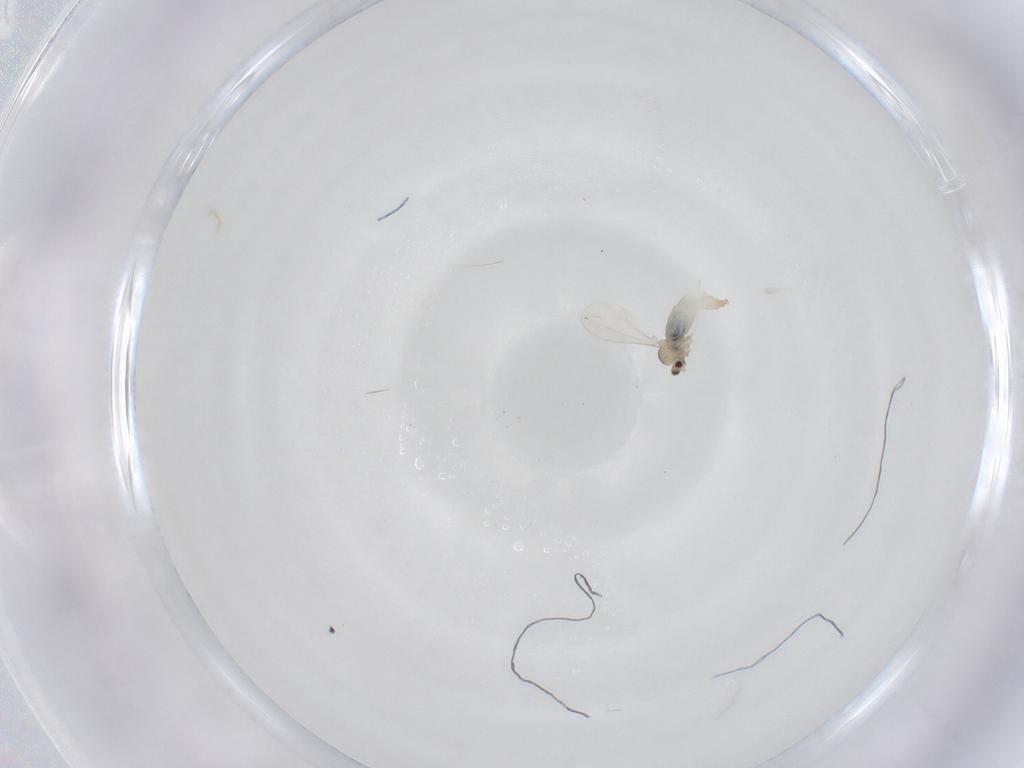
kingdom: Animalia
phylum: Arthropoda
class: Insecta
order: Diptera
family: Cecidomyiidae
